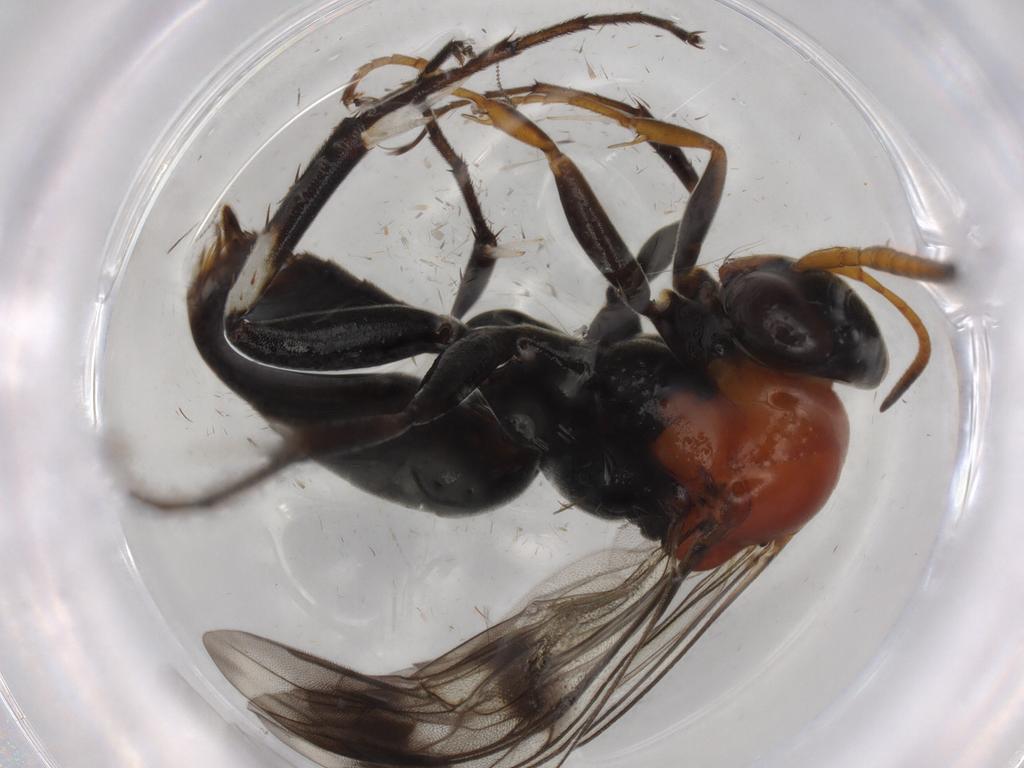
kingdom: Animalia
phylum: Arthropoda
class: Insecta
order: Hymenoptera
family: Pompilidae
